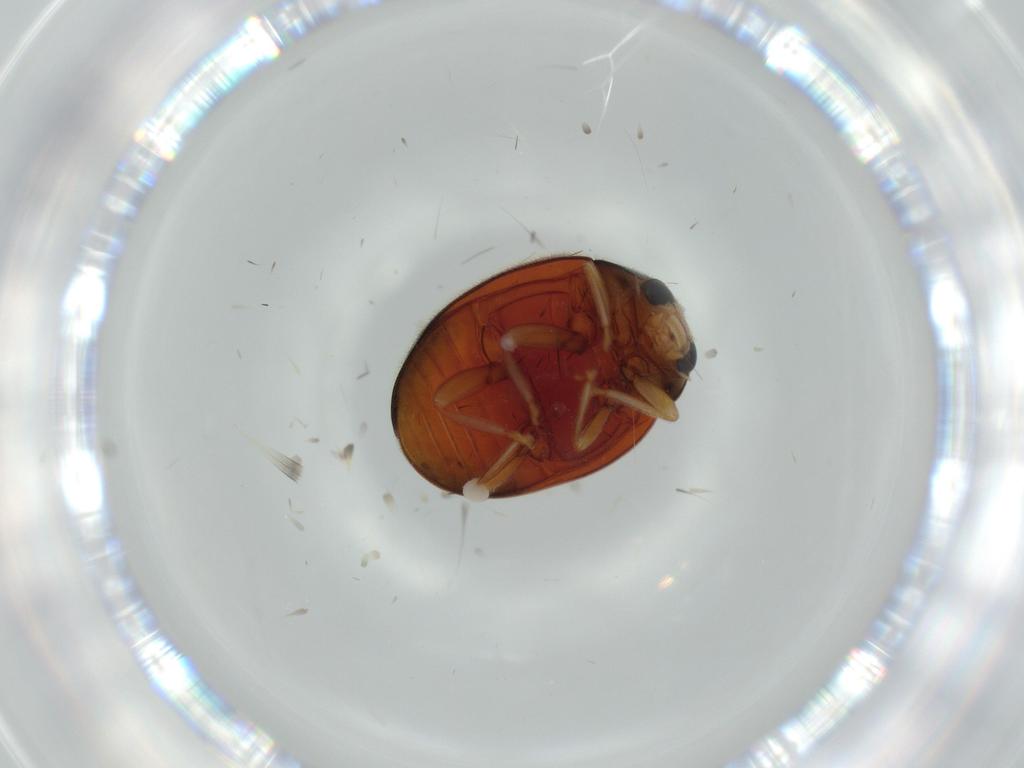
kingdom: Animalia
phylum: Arthropoda
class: Insecta
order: Coleoptera
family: Coccinellidae
